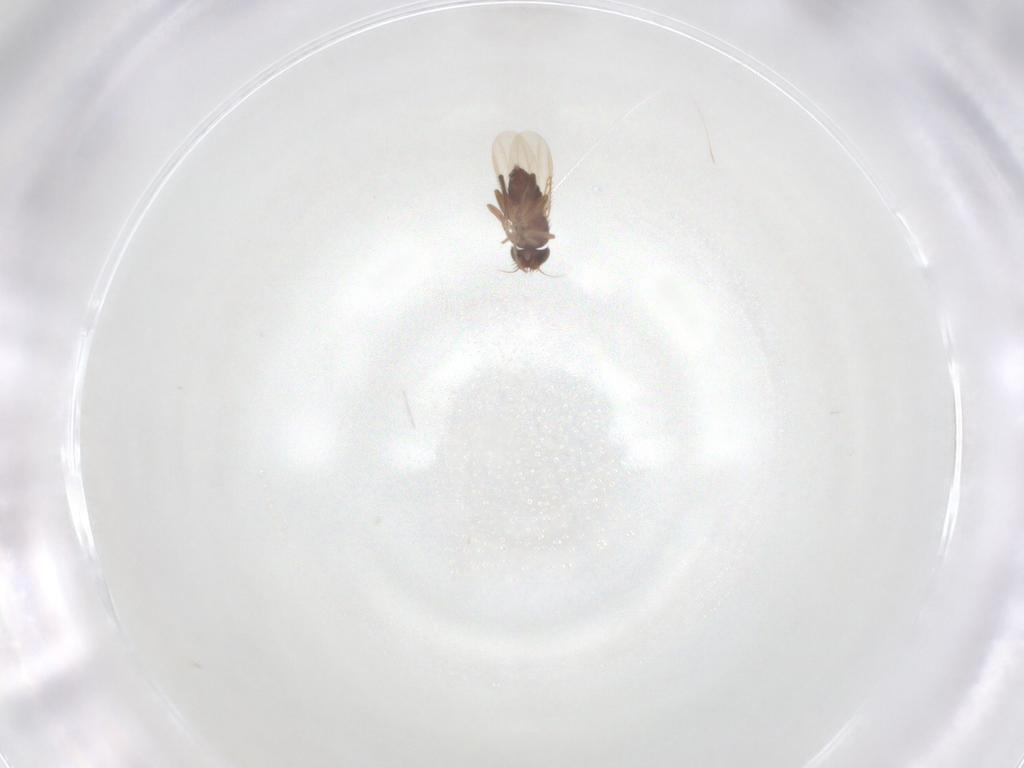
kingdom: Animalia
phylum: Arthropoda
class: Insecta
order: Diptera
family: Phoridae
